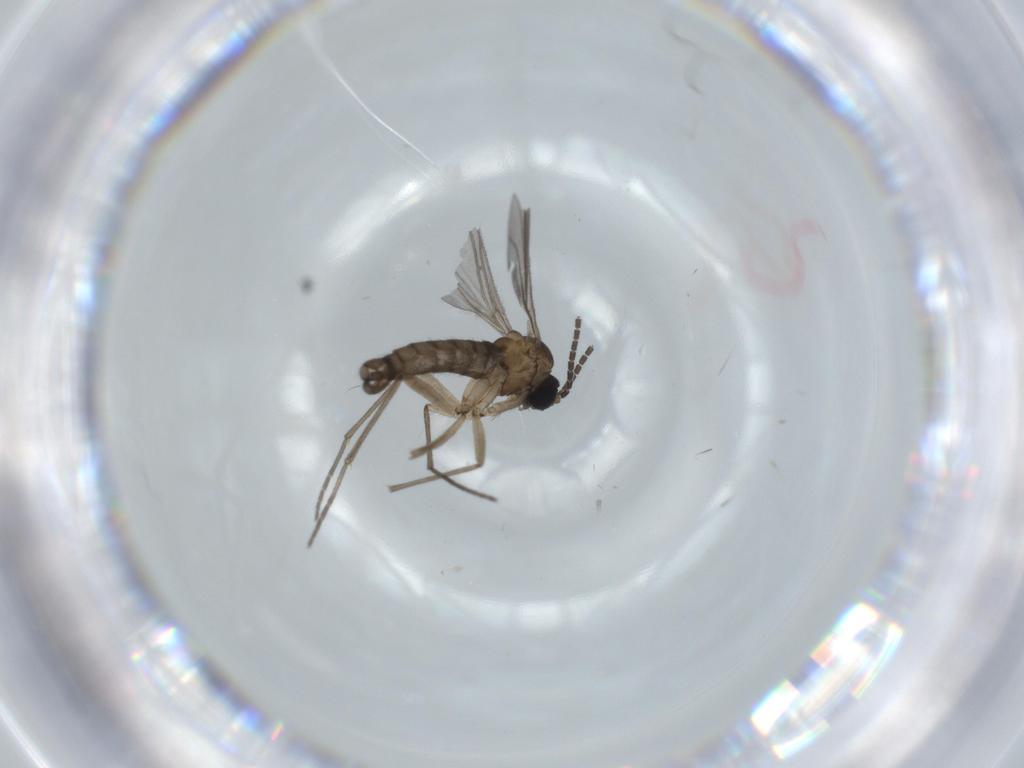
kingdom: Animalia
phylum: Arthropoda
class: Insecta
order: Diptera
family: Sciaridae
